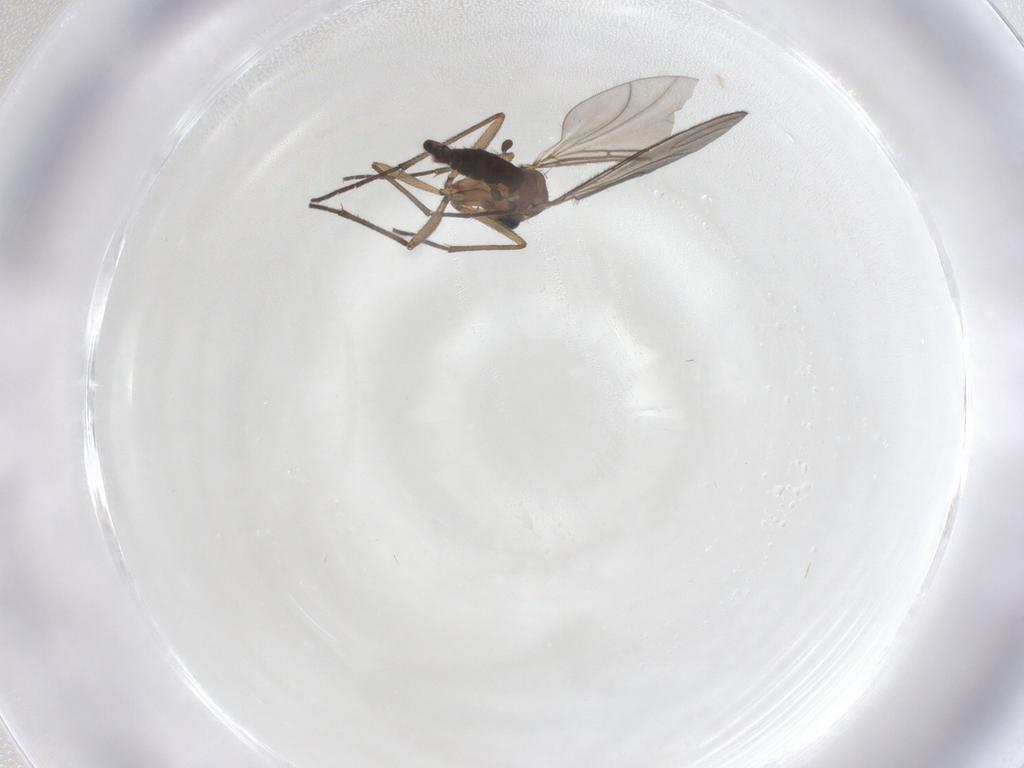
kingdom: Animalia
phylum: Arthropoda
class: Insecta
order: Diptera
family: Sciaridae
